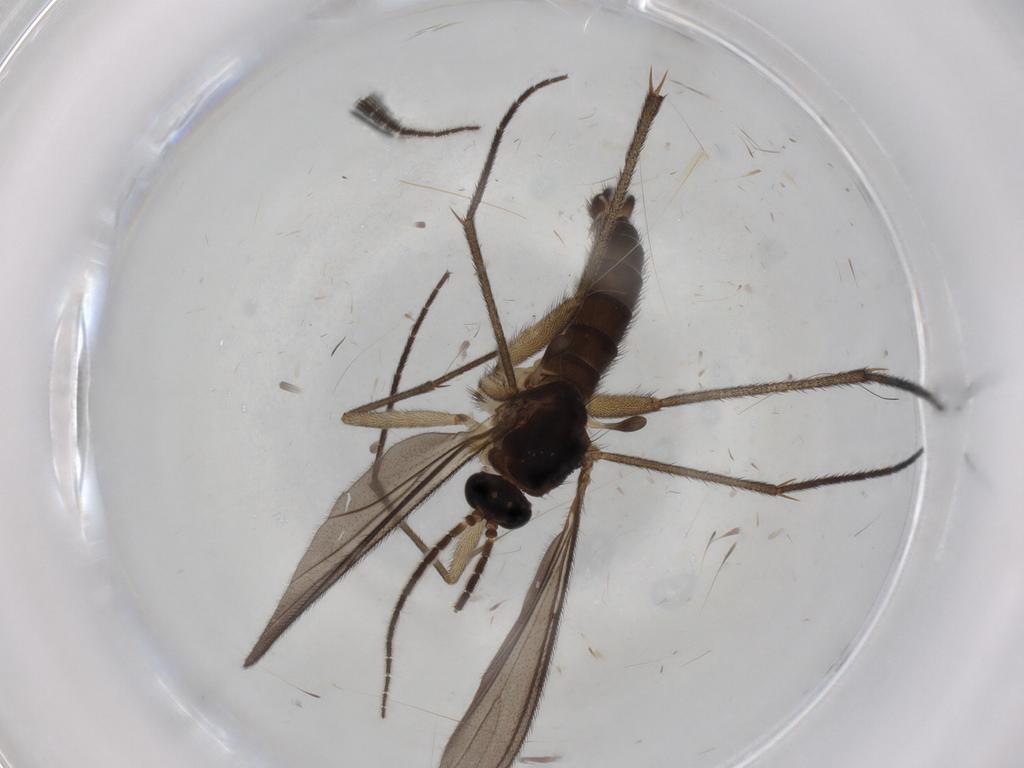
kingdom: Animalia
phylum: Arthropoda
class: Insecta
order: Diptera
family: Sciaridae
